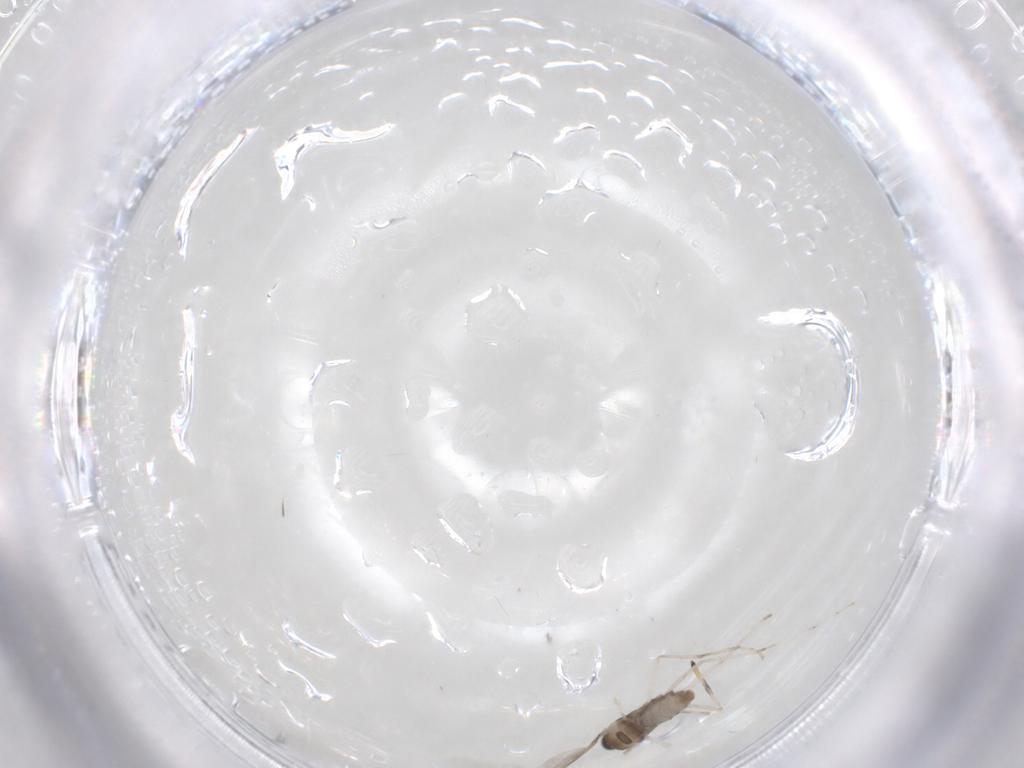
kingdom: Animalia
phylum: Arthropoda
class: Insecta
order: Diptera
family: Cecidomyiidae
